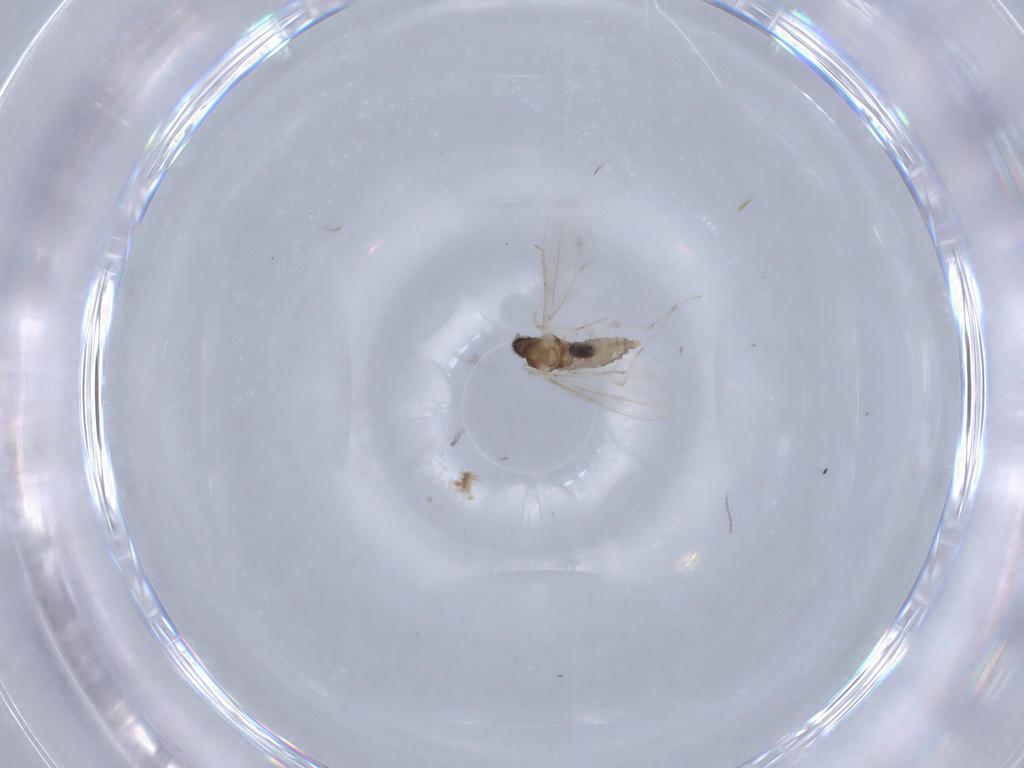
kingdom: Animalia
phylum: Arthropoda
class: Insecta
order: Diptera
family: Cecidomyiidae
